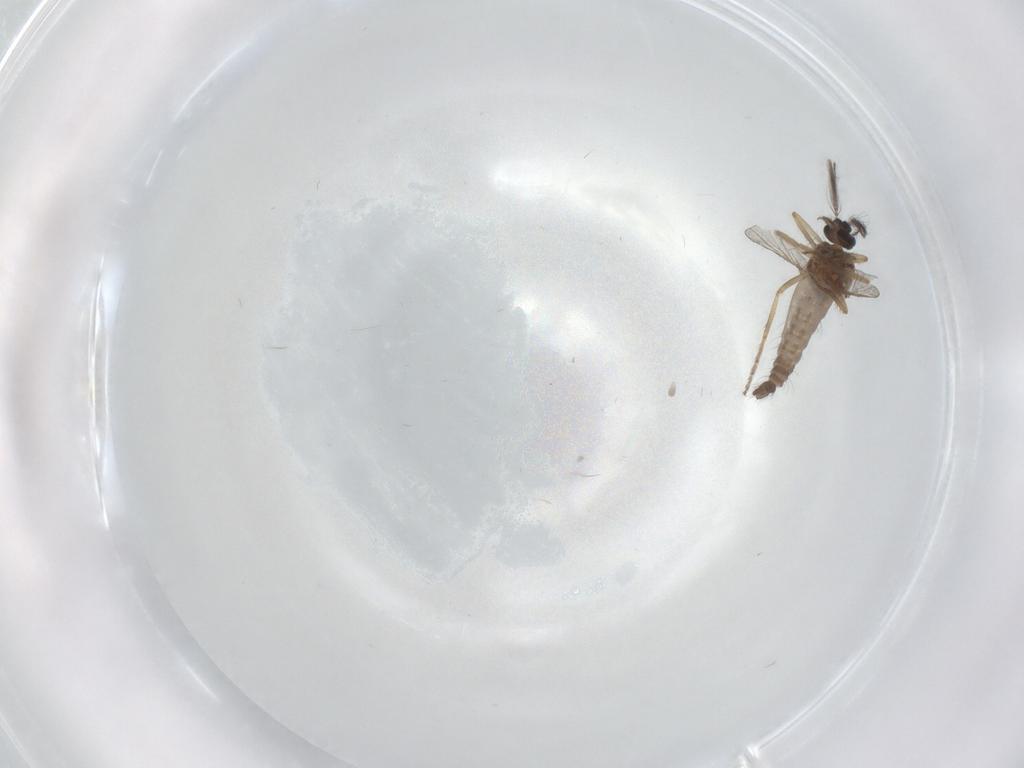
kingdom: Animalia
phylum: Arthropoda
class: Insecta
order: Diptera
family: Ceratopogonidae
